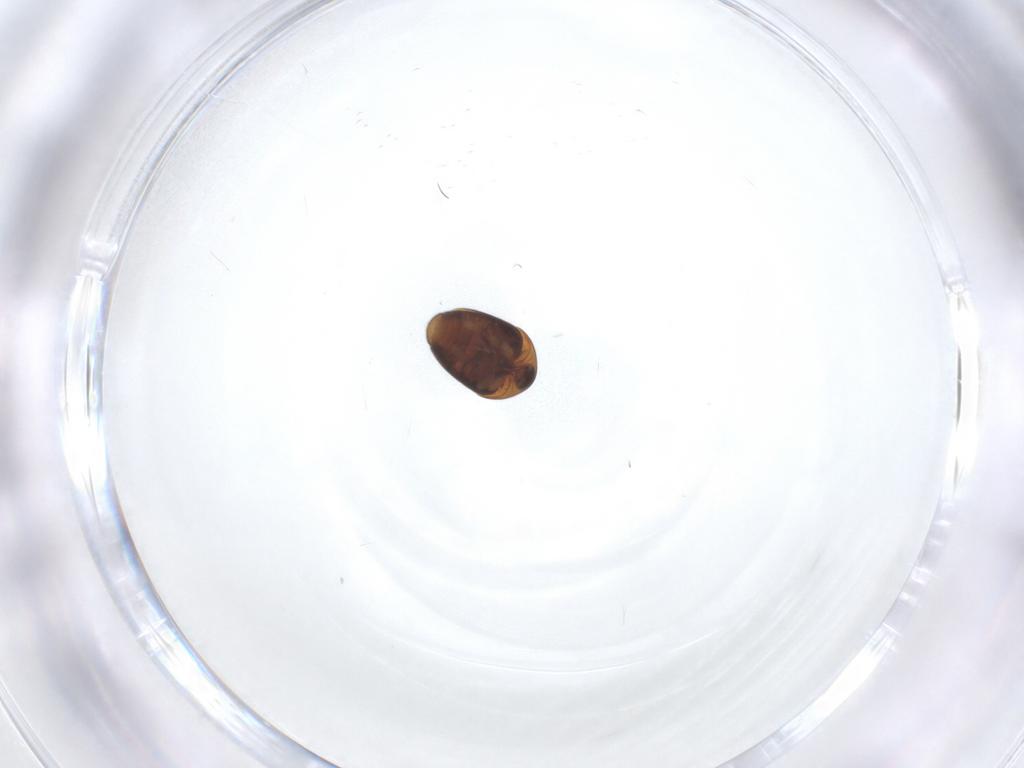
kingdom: Animalia
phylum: Arthropoda
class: Insecta
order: Coleoptera
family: Corylophidae
